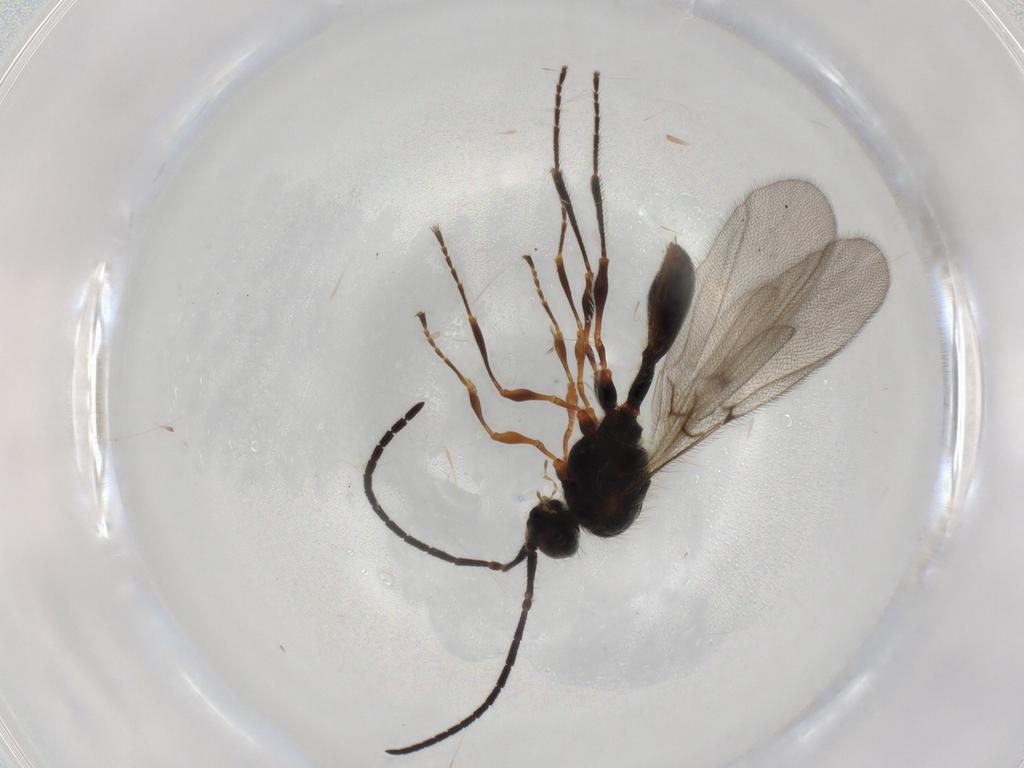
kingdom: Animalia
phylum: Arthropoda
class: Insecta
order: Hymenoptera
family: Diapriidae
